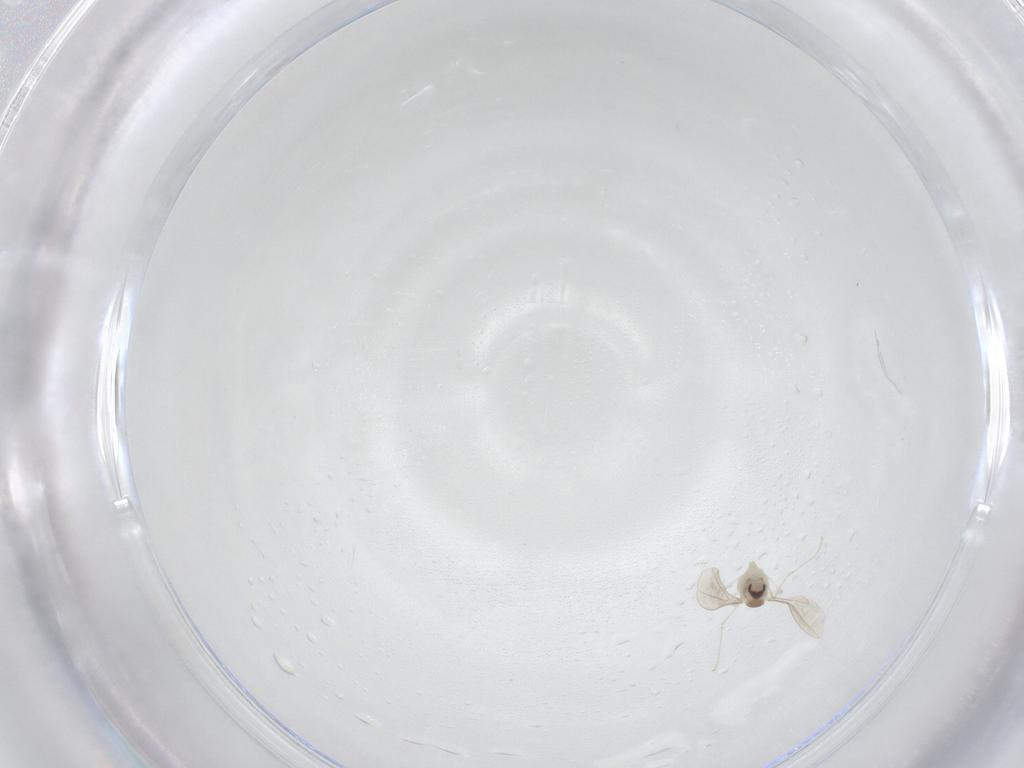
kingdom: Animalia
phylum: Arthropoda
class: Insecta
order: Diptera
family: Cecidomyiidae
